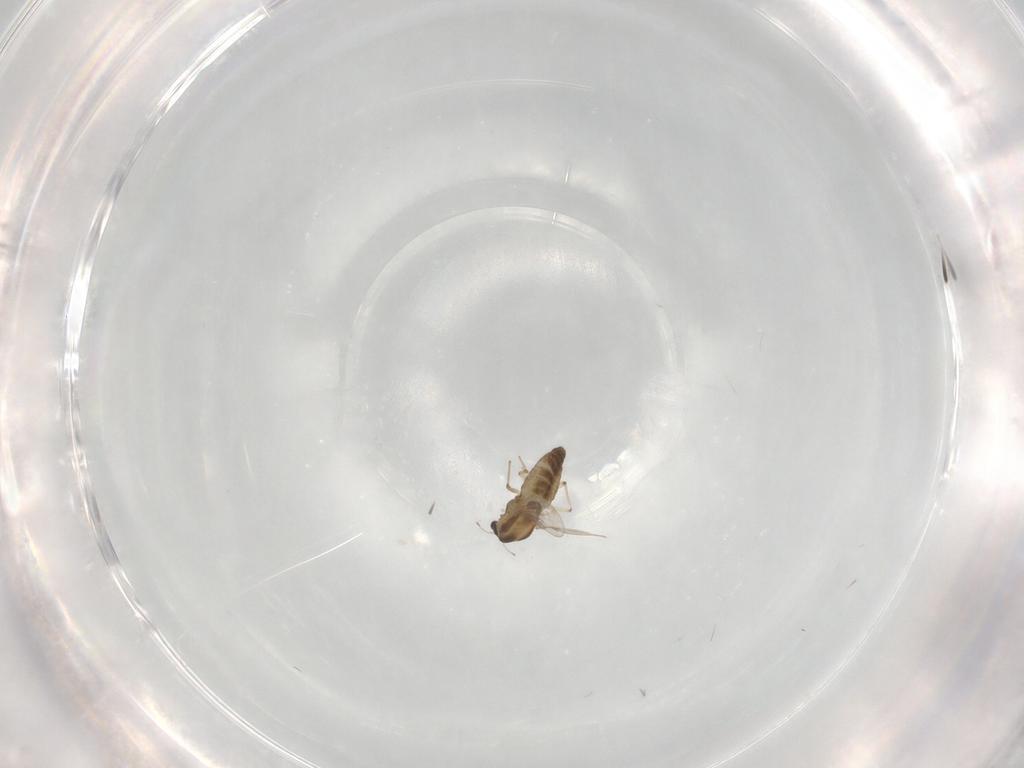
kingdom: Animalia
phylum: Arthropoda
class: Insecta
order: Diptera
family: Chironomidae
